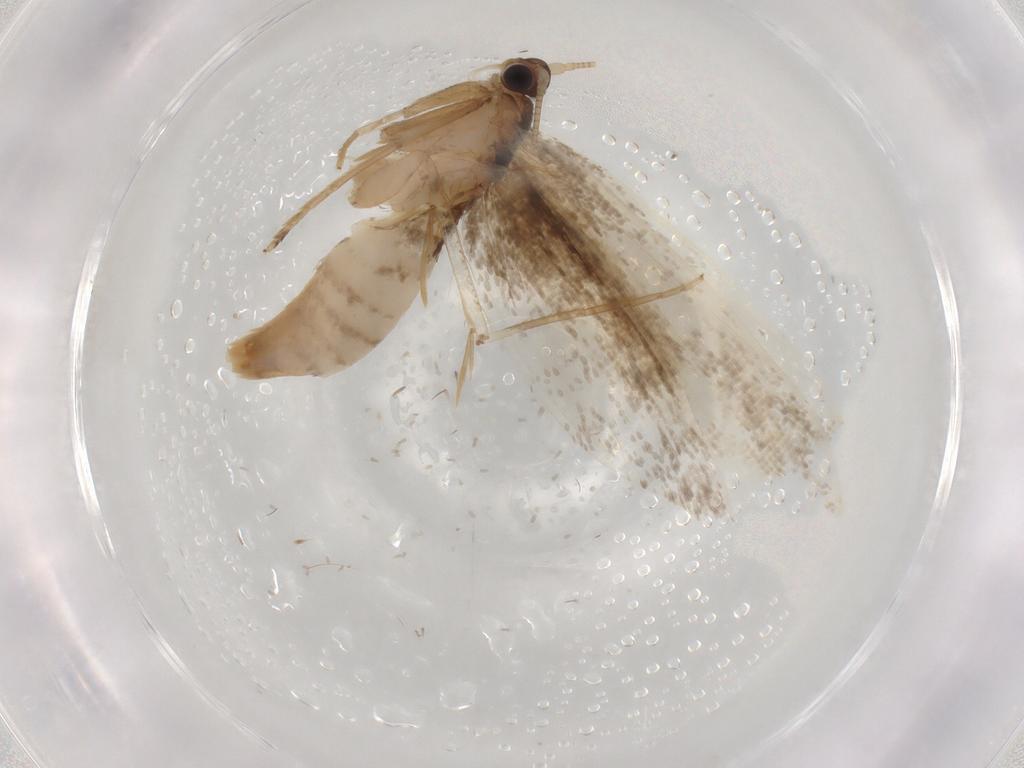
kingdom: Animalia
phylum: Arthropoda
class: Insecta
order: Lepidoptera
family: Tineidae
